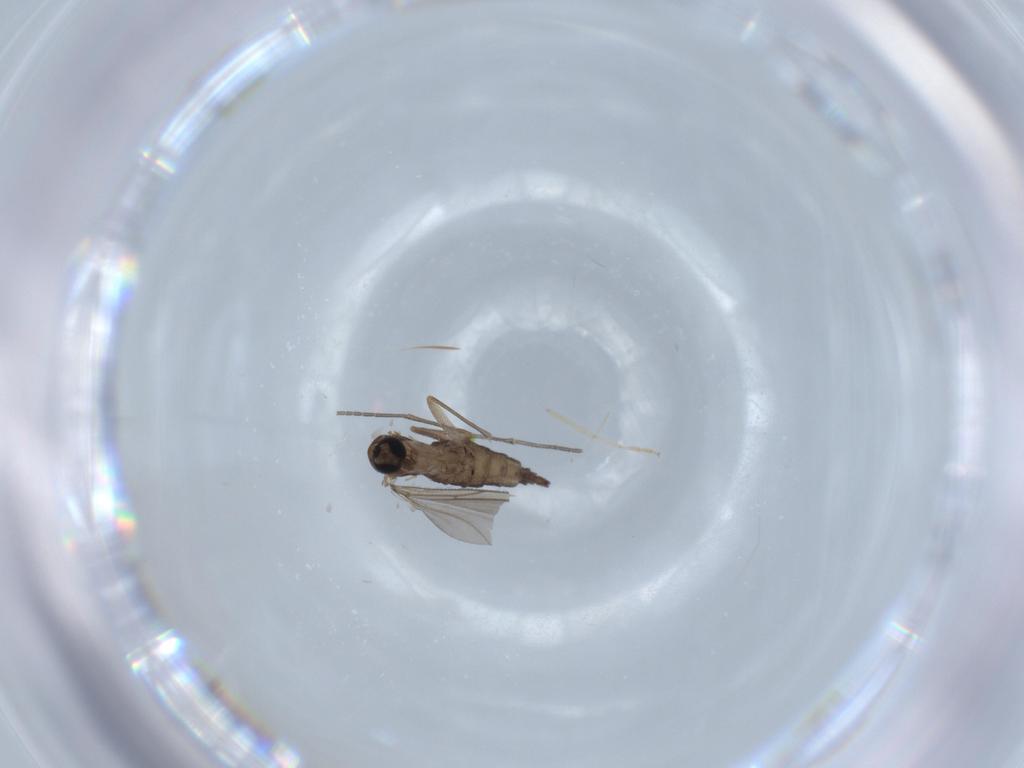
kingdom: Animalia
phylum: Arthropoda
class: Insecta
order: Diptera
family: Sciaridae
